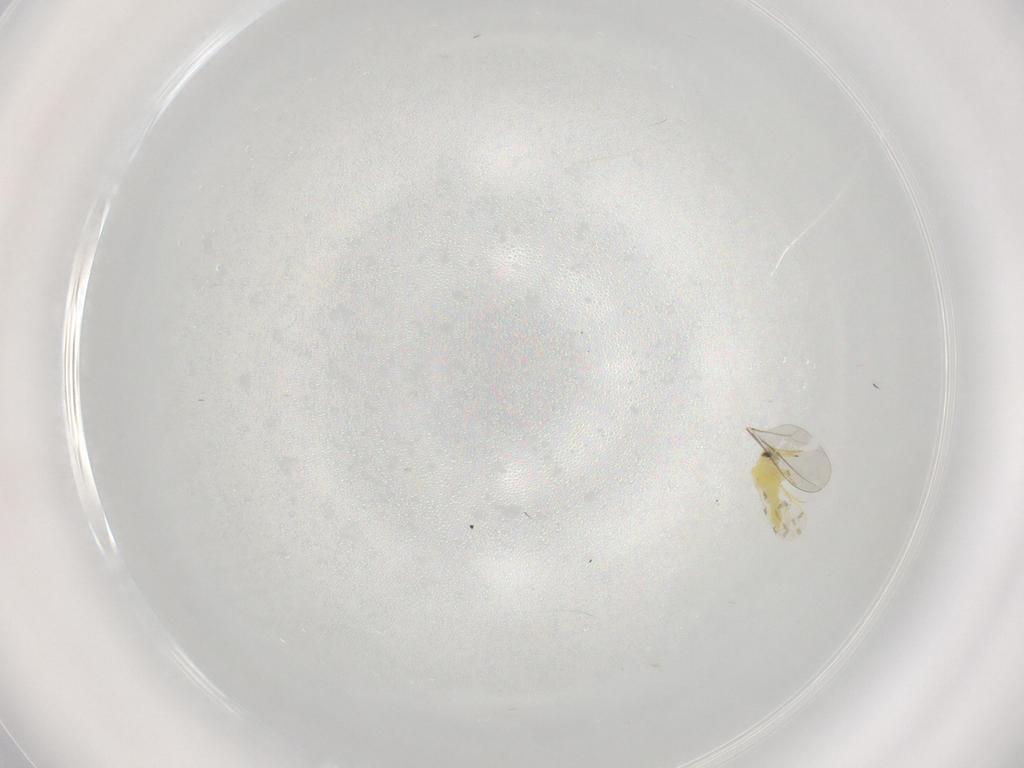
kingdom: Animalia
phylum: Arthropoda
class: Insecta
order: Hemiptera
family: Aleyrodidae
